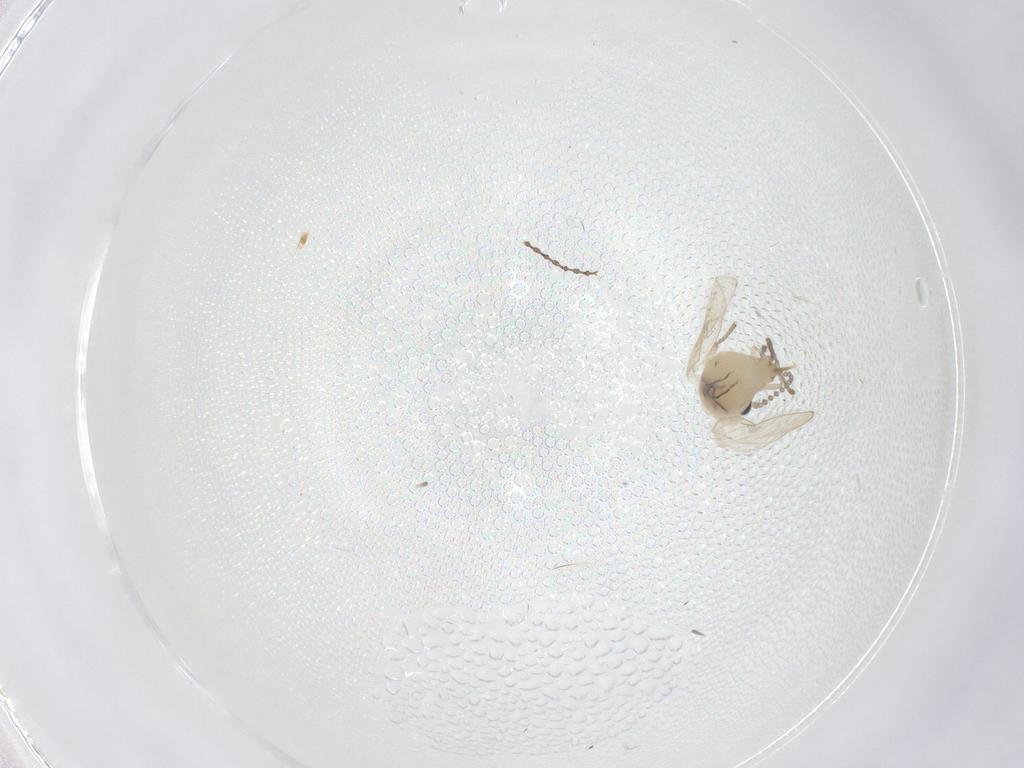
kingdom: Animalia
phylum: Arthropoda
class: Insecta
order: Diptera
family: Psychodidae
